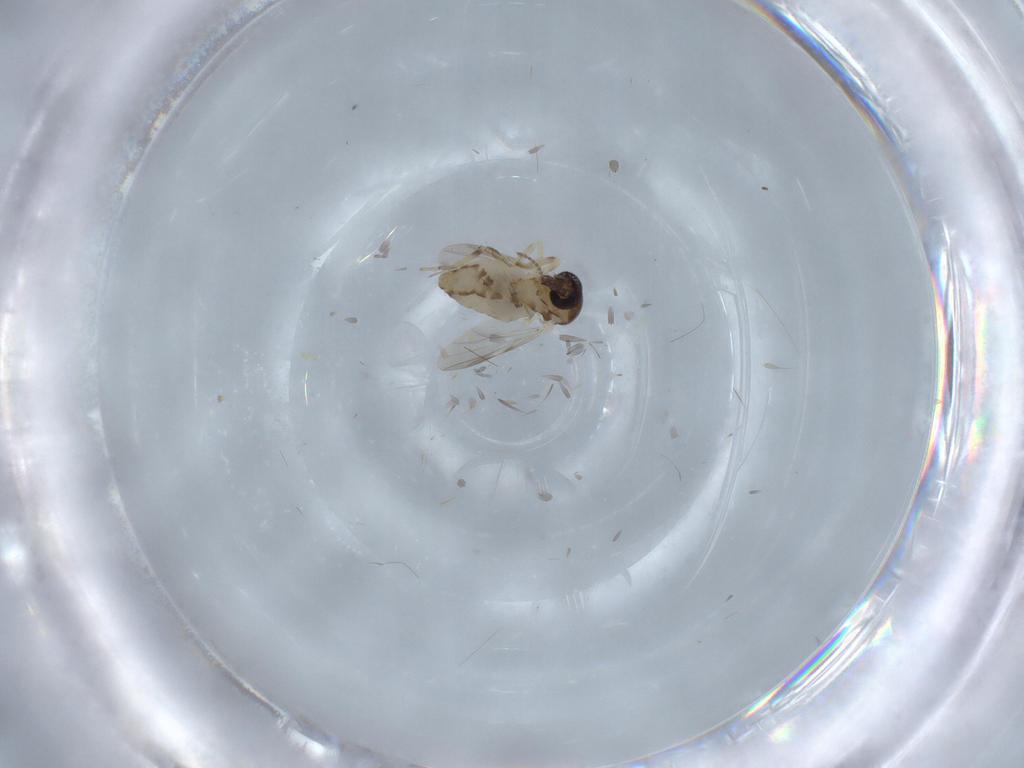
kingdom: Animalia
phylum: Arthropoda
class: Insecta
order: Diptera
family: Ceratopogonidae
